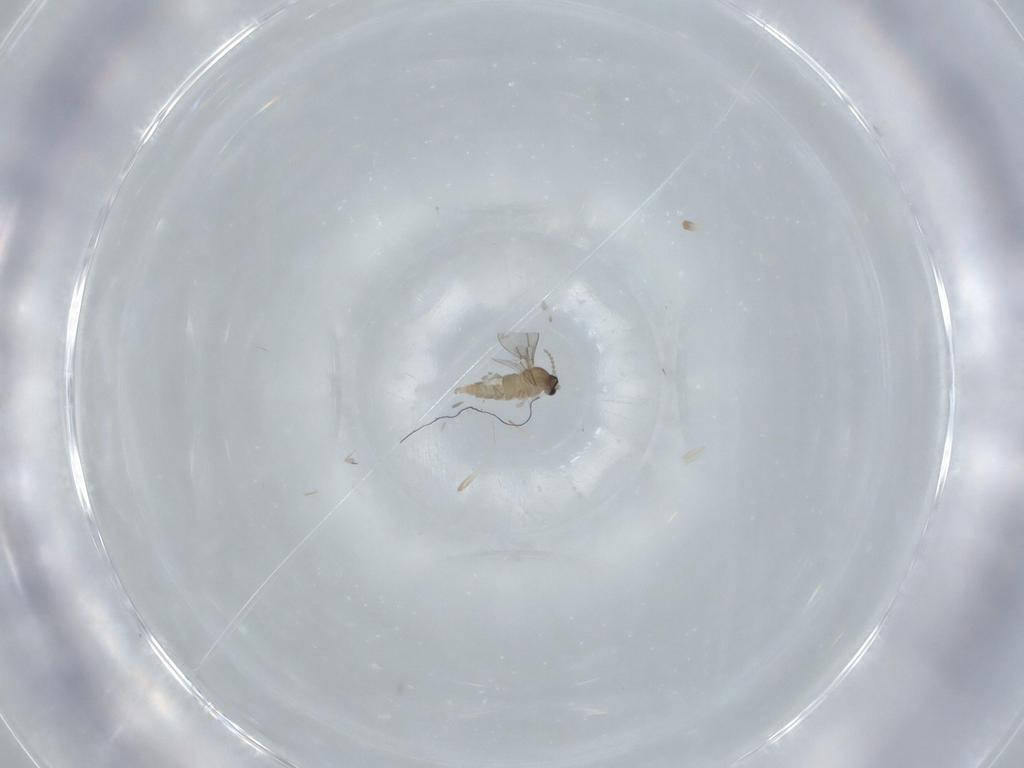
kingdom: Animalia
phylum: Arthropoda
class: Insecta
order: Diptera
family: Cecidomyiidae
